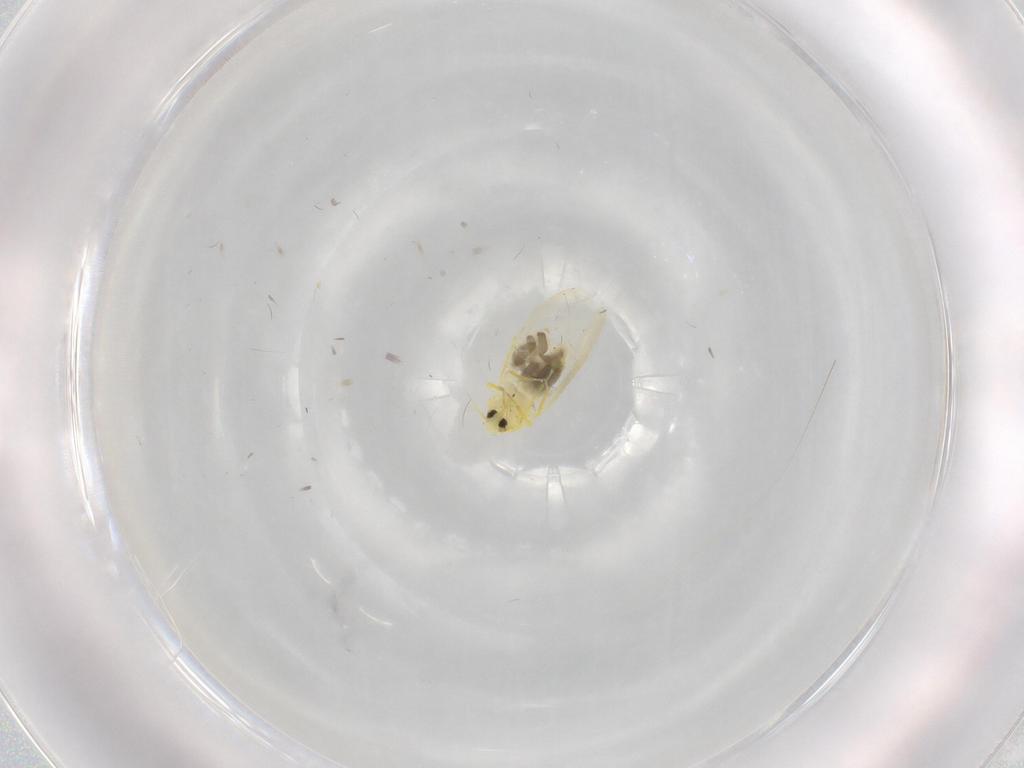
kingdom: Animalia
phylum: Arthropoda
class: Insecta
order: Hemiptera
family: Aleyrodidae
